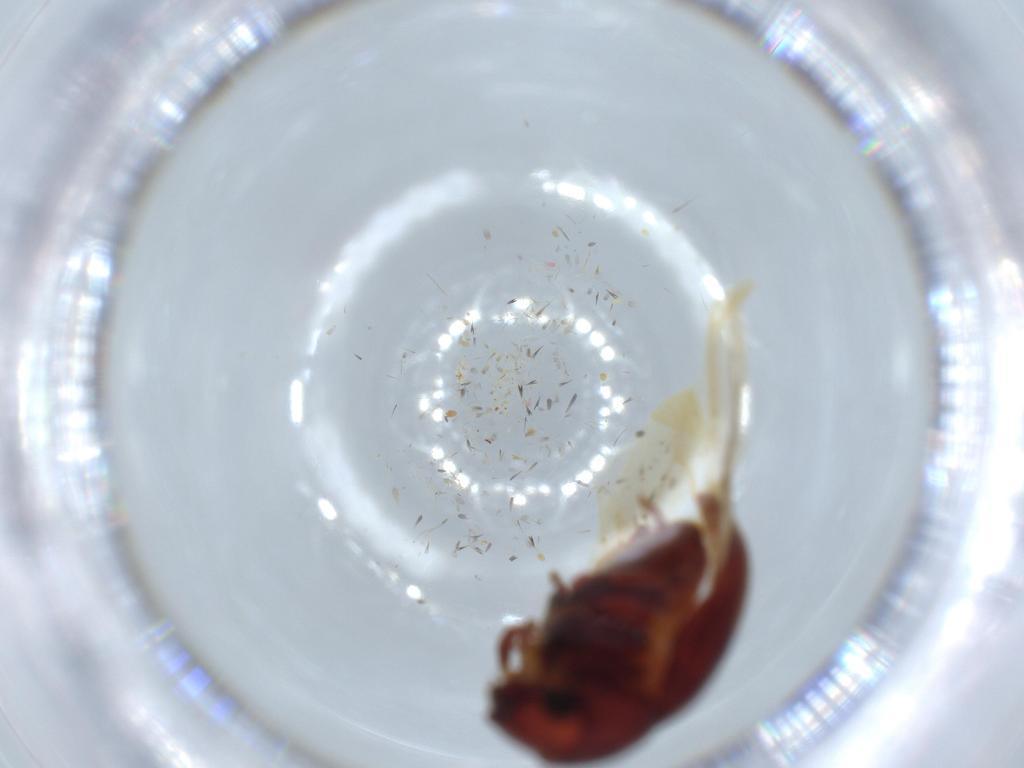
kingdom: Animalia
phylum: Arthropoda
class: Insecta
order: Coleoptera
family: Ptinidae
